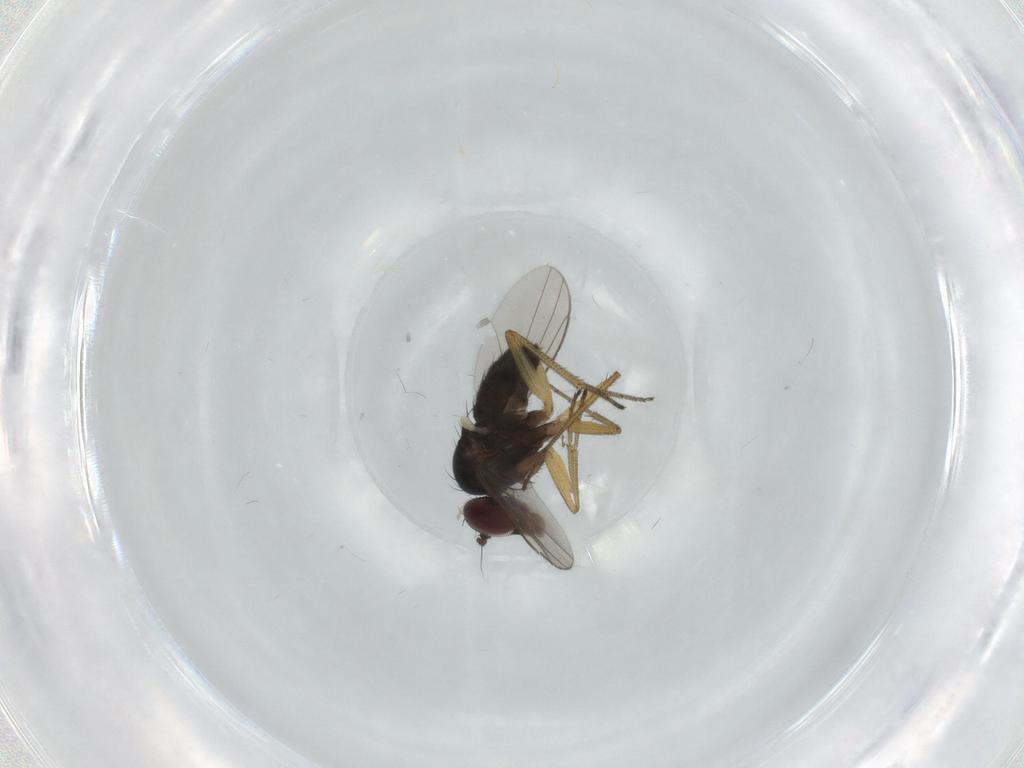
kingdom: Animalia
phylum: Arthropoda
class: Insecta
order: Diptera
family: Dolichopodidae
